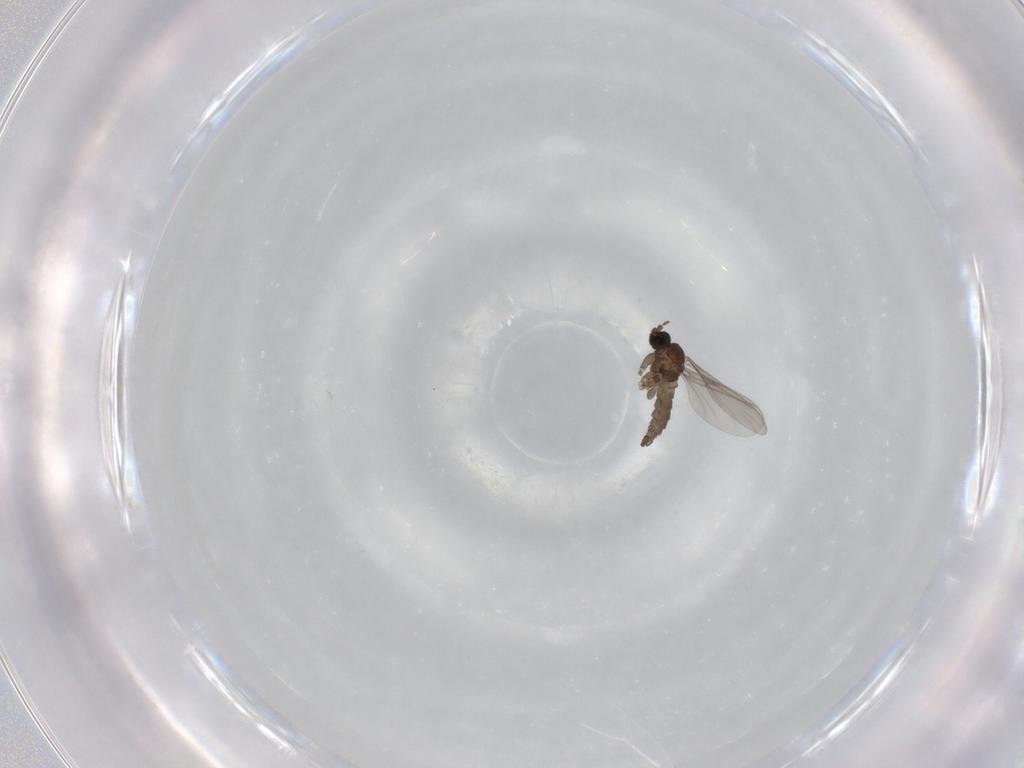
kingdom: Animalia
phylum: Arthropoda
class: Insecta
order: Diptera
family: Sciaridae
